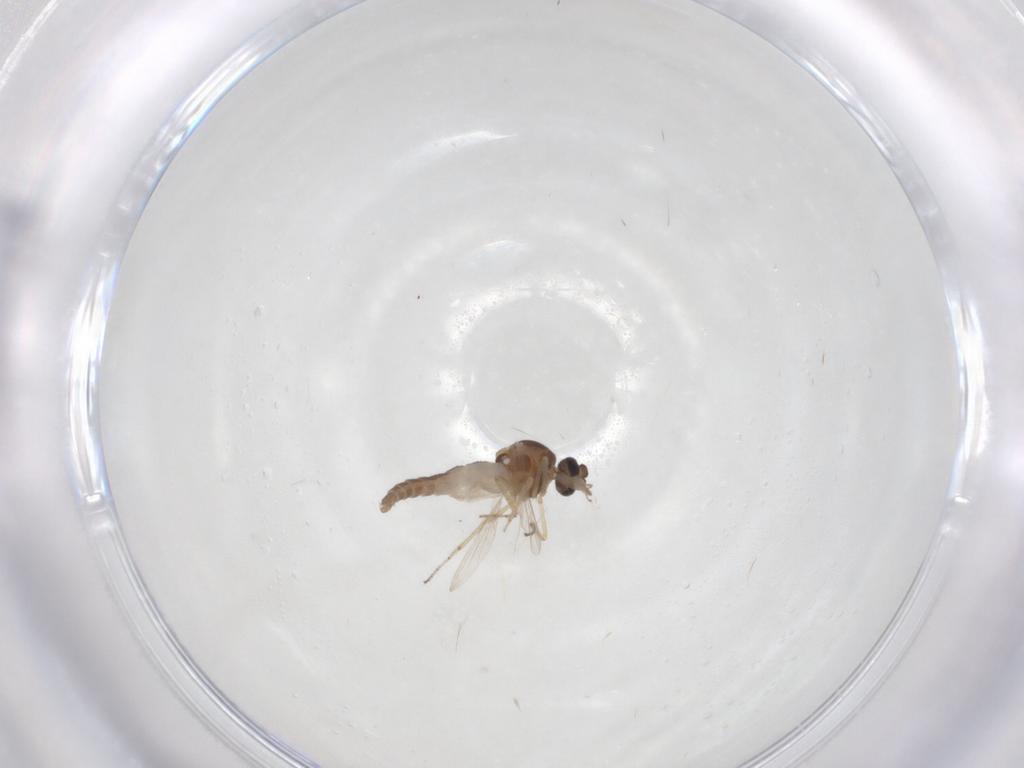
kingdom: Animalia
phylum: Arthropoda
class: Insecta
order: Diptera
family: Ceratopogonidae
